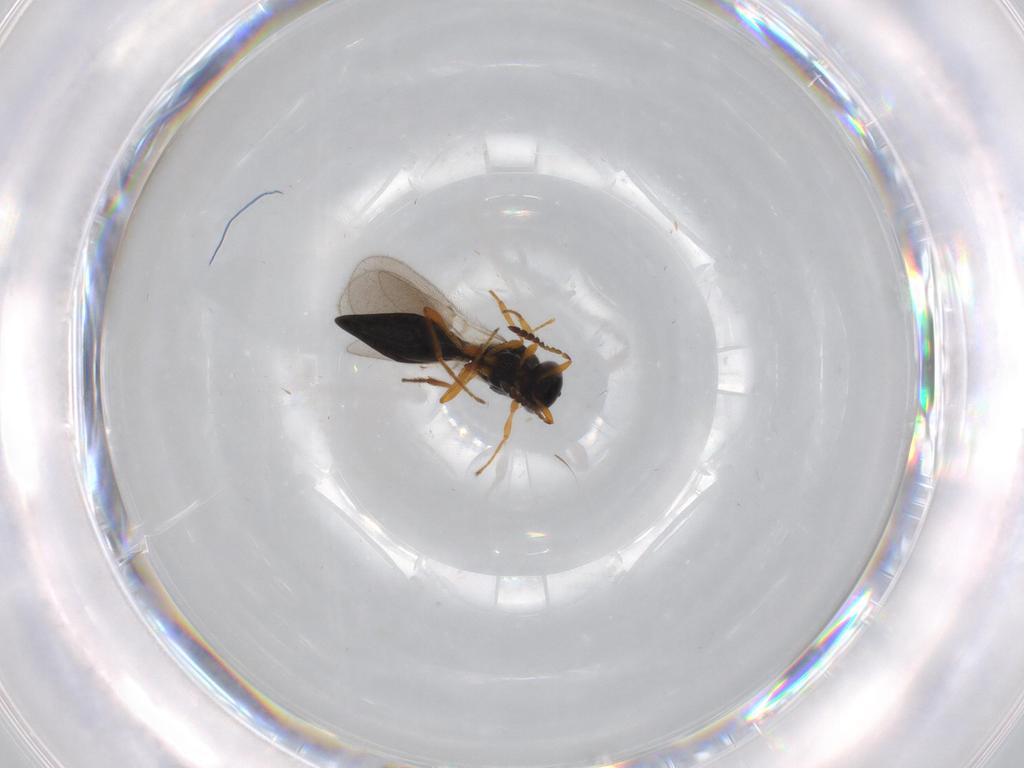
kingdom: Animalia
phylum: Arthropoda
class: Insecta
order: Hymenoptera
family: Platygastridae
